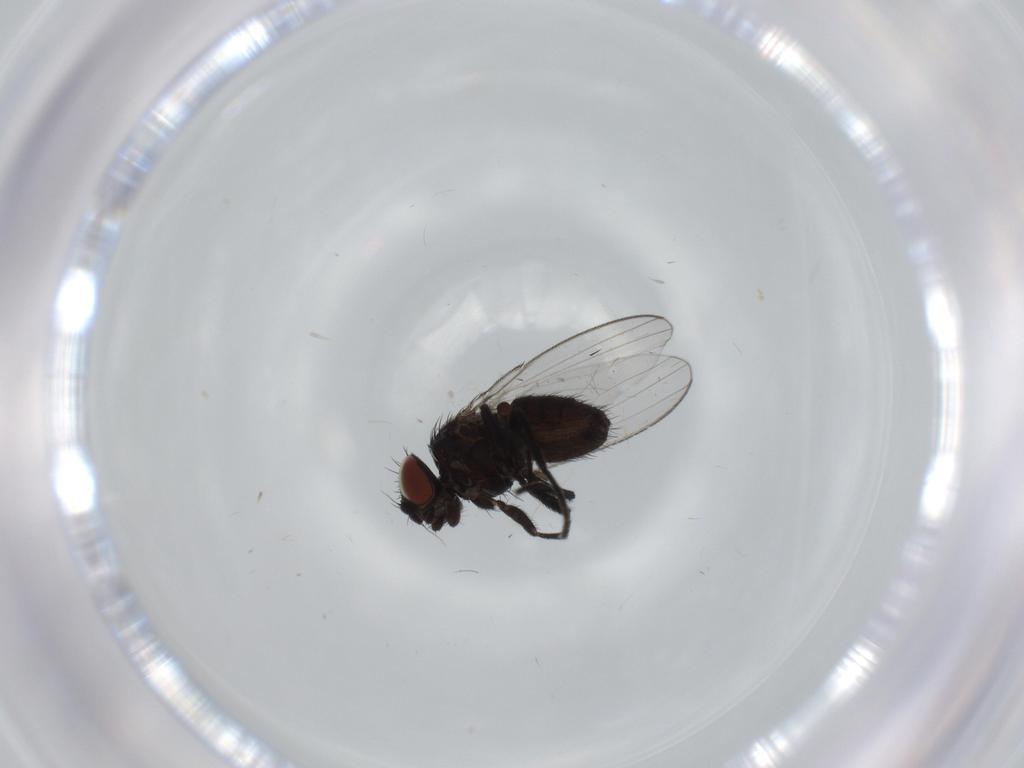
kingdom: Animalia
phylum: Arthropoda
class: Insecta
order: Diptera
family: Milichiidae
